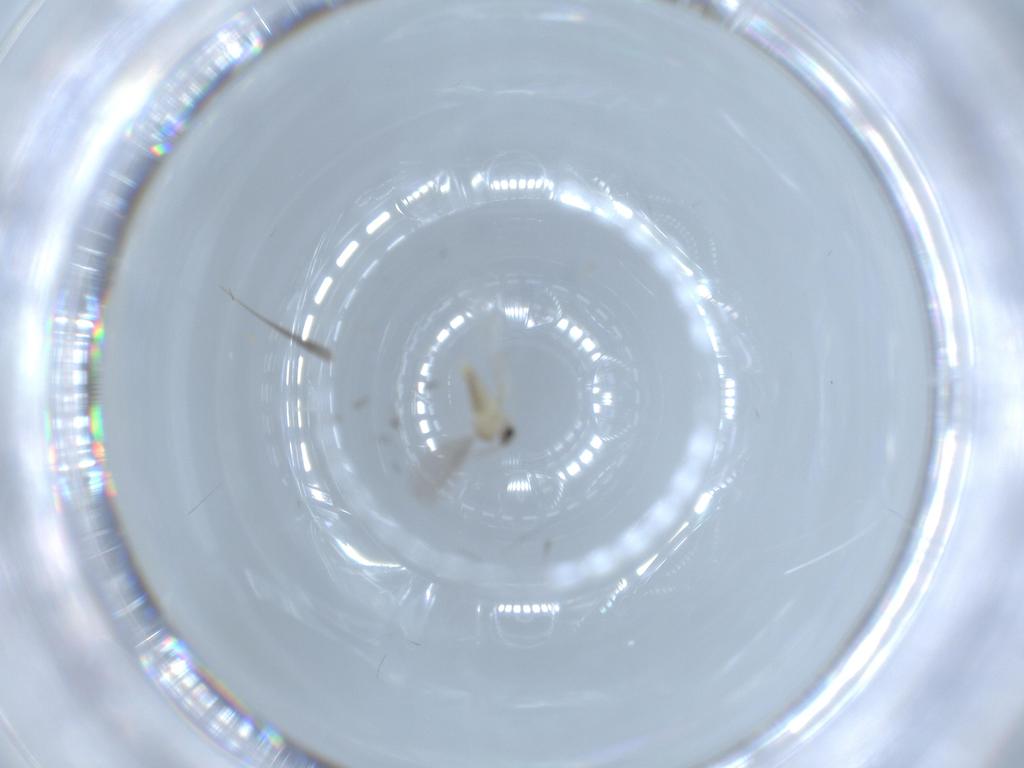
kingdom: Animalia
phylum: Arthropoda
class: Insecta
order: Diptera
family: Cecidomyiidae
